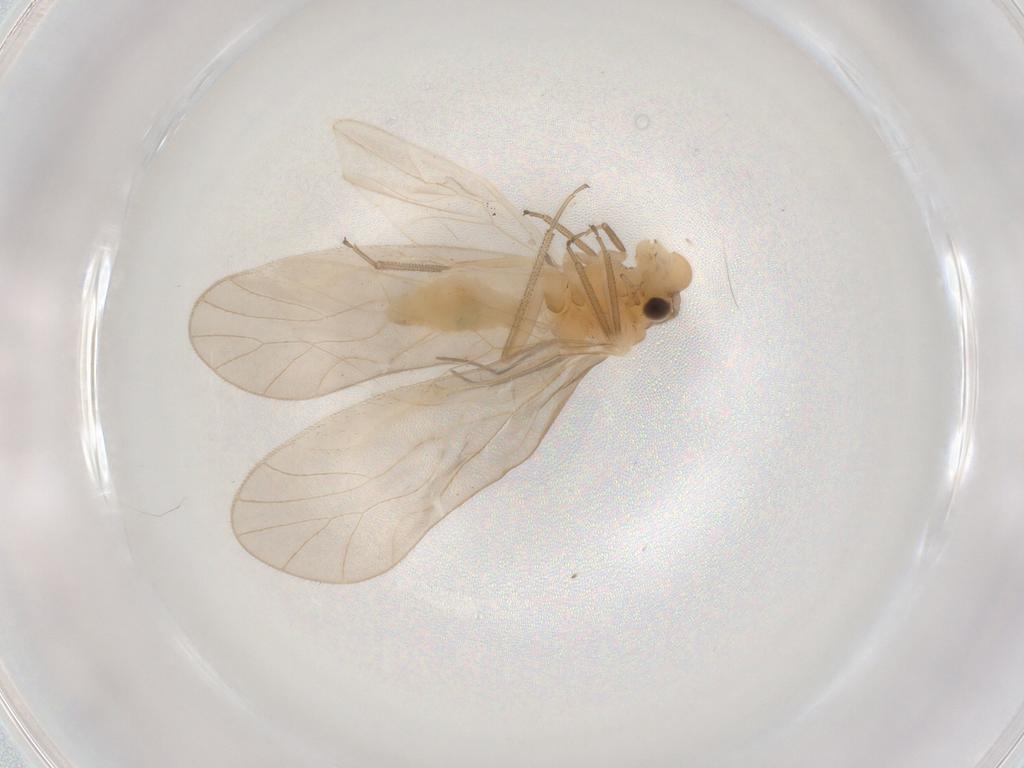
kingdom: Animalia
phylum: Arthropoda
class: Insecta
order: Psocodea
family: Caeciliusidae
